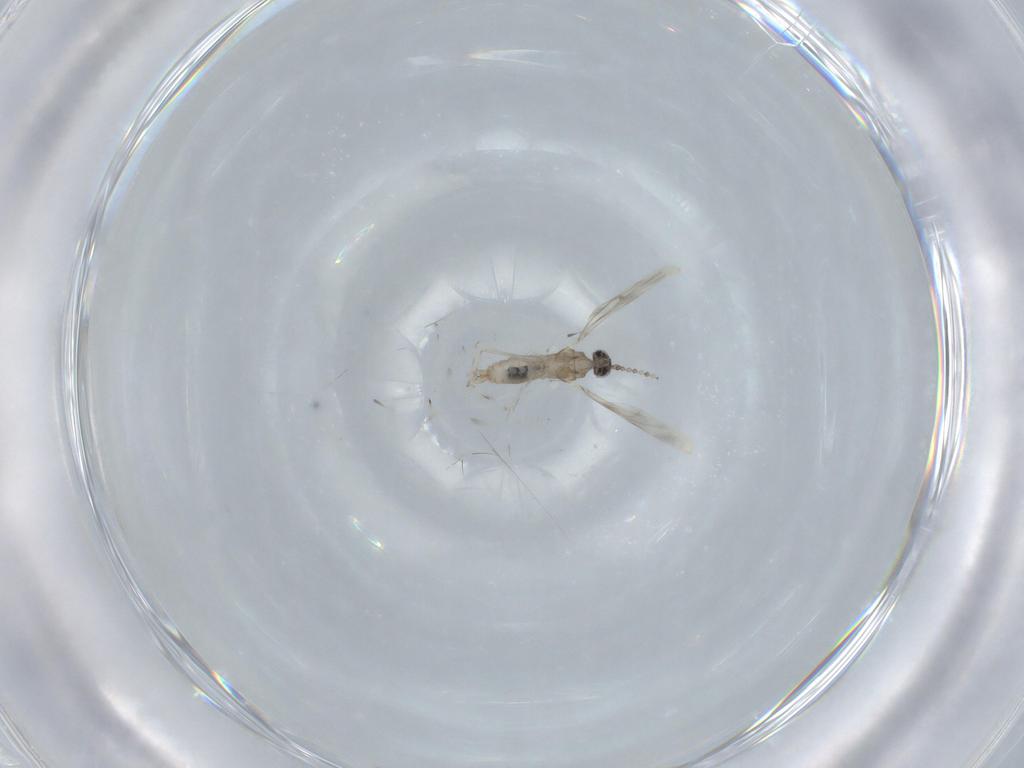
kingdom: Animalia
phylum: Arthropoda
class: Insecta
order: Diptera
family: Cecidomyiidae
